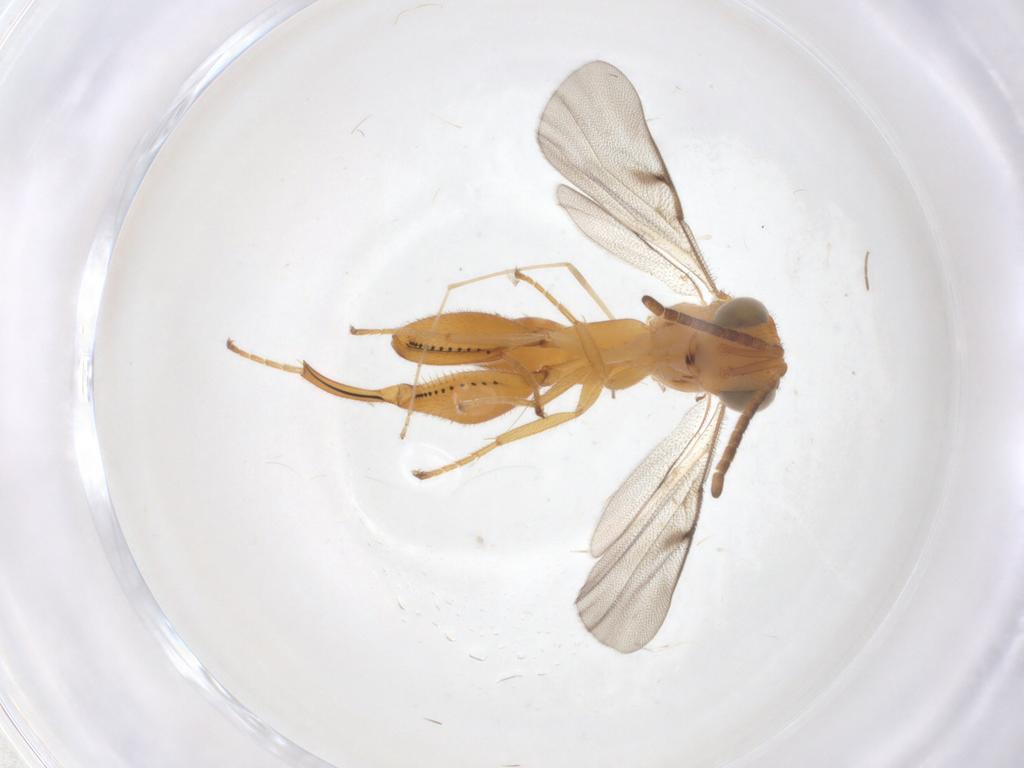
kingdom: Animalia
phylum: Arthropoda
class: Insecta
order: Hymenoptera
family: Chalcididae
